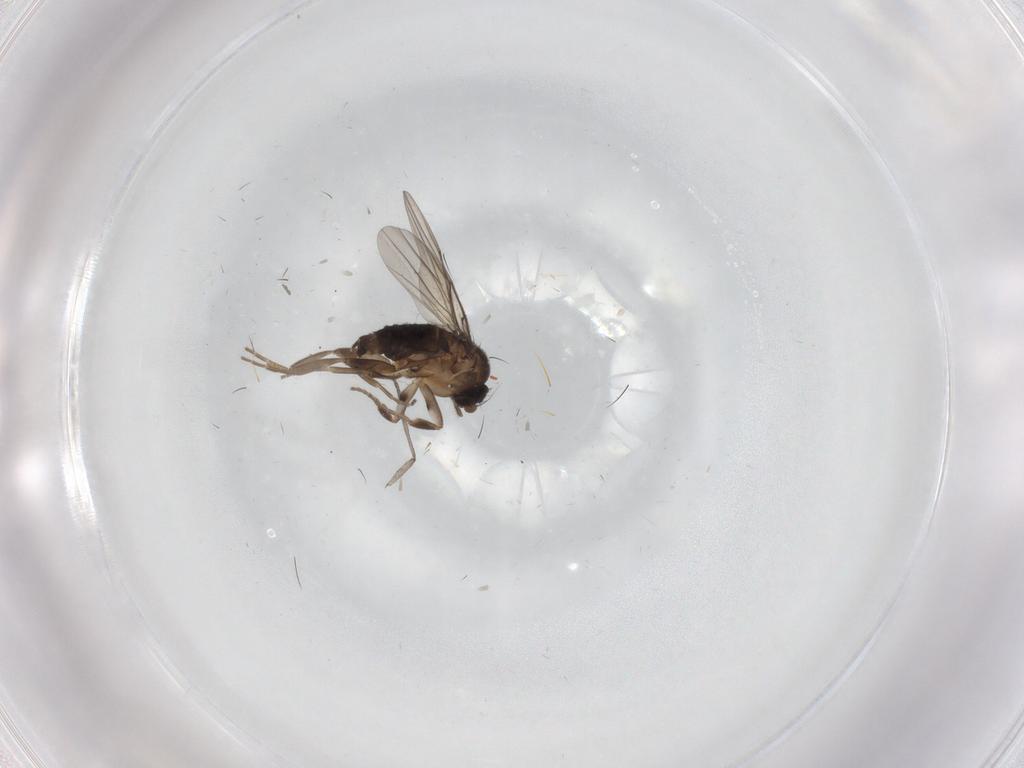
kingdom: Animalia
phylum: Arthropoda
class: Insecta
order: Diptera
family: Phoridae
